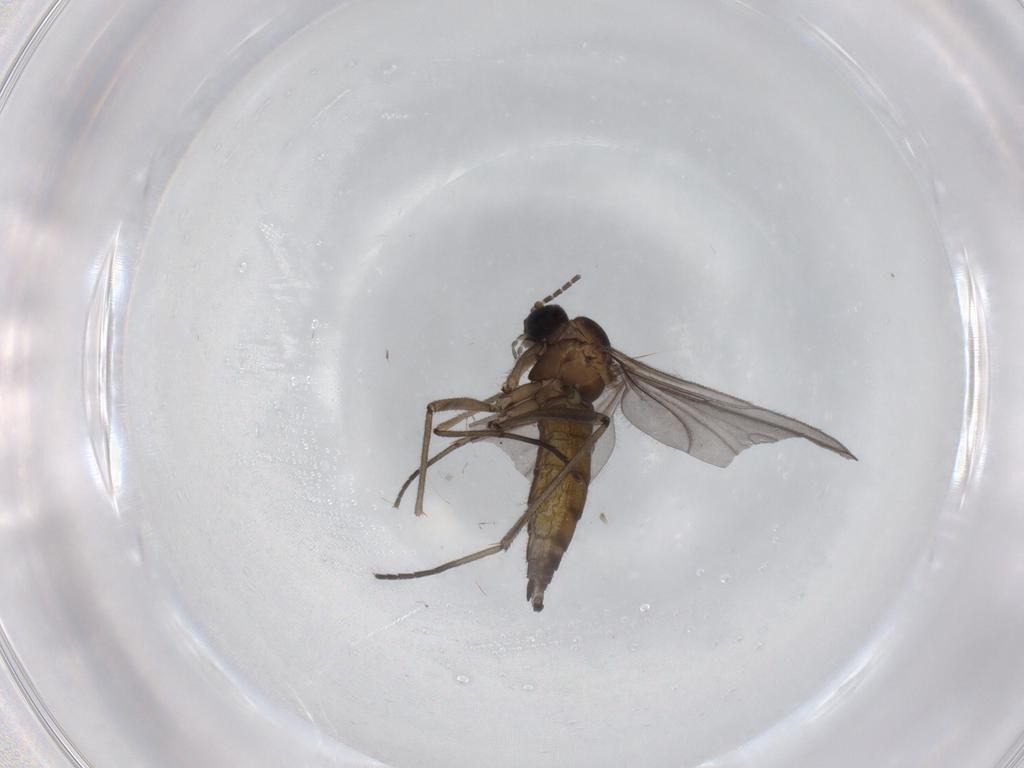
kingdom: Animalia
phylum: Arthropoda
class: Insecta
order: Diptera
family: Sciaridae
